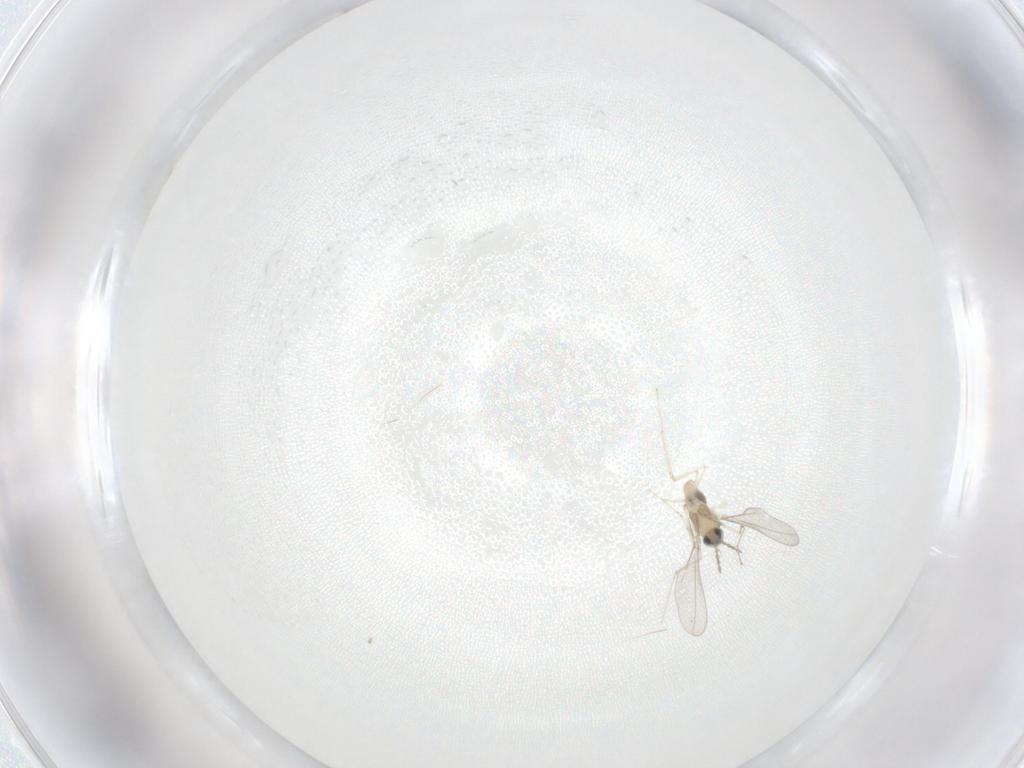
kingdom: Animalia
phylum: Arthropoda
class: Insecta
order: Diptera
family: Cecidomyiidae
